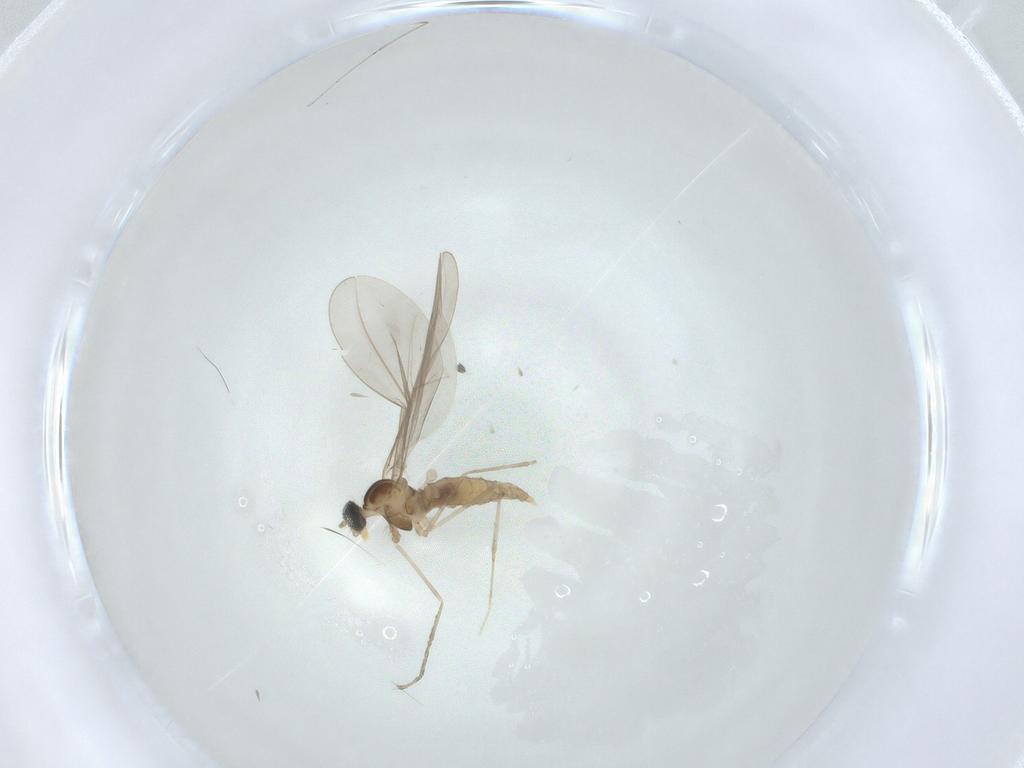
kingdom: Animalia
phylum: Arthropoda
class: Insecta
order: Diptera
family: Cecidomyiidae
